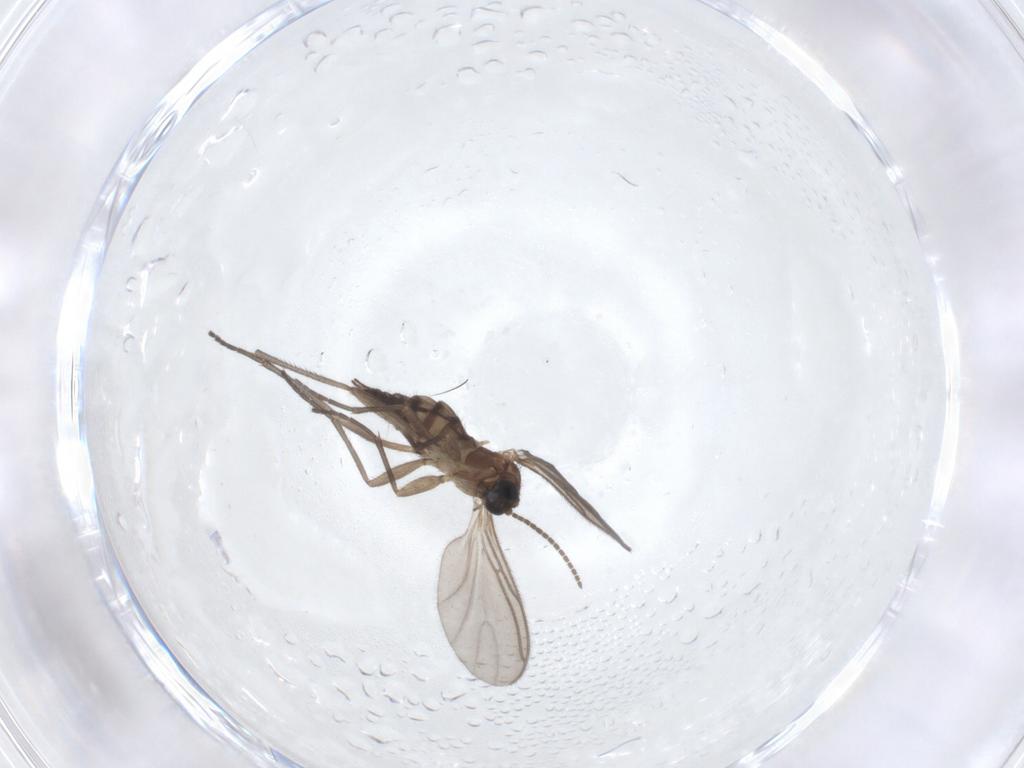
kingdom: Animalia
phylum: Arthropoda
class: Insecta
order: Diptera
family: Sciaridae
